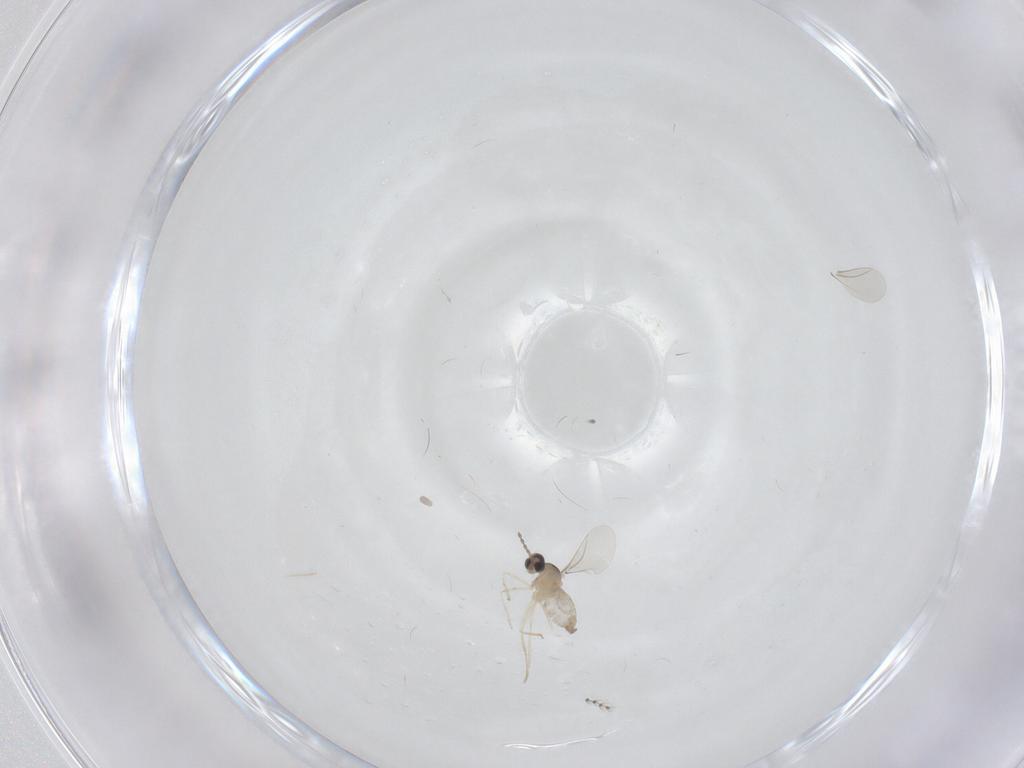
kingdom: Animalia
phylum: Arthropoda
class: Insecta
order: Diptera
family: Cecidomyiidae
